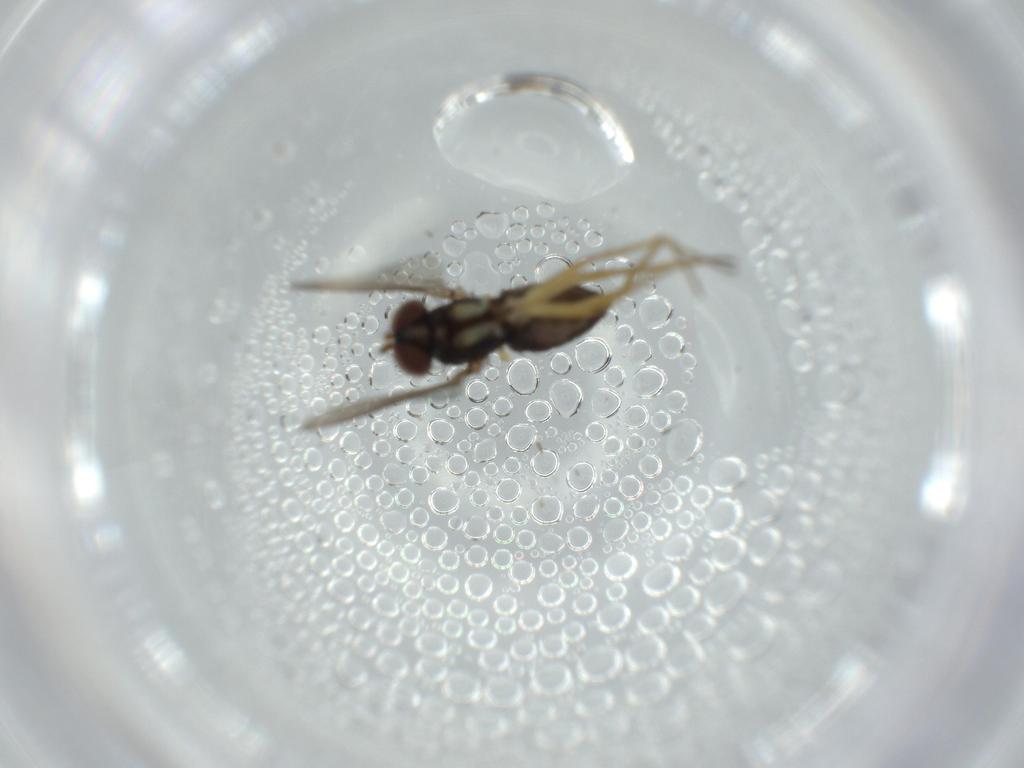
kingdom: Animalia
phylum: Arthropoda
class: Insecta
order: Diptera
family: Dolichopodidae
